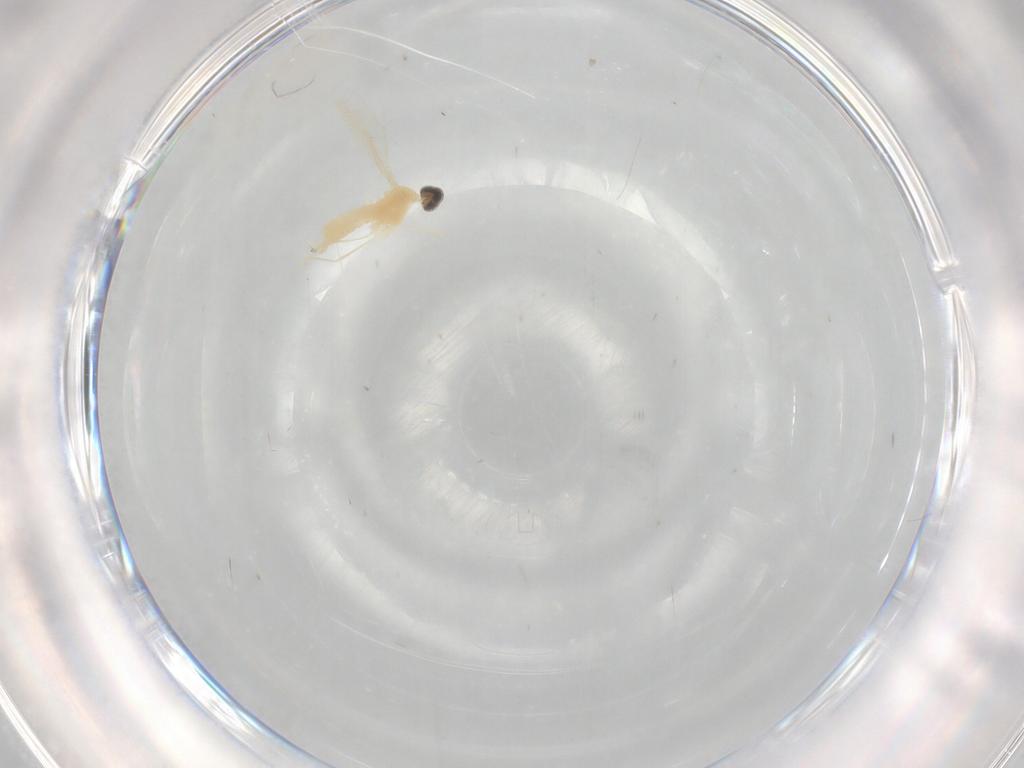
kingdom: Animalia
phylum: Arthropoda
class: Insecta
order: Diptera
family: Cecidomyiidae
